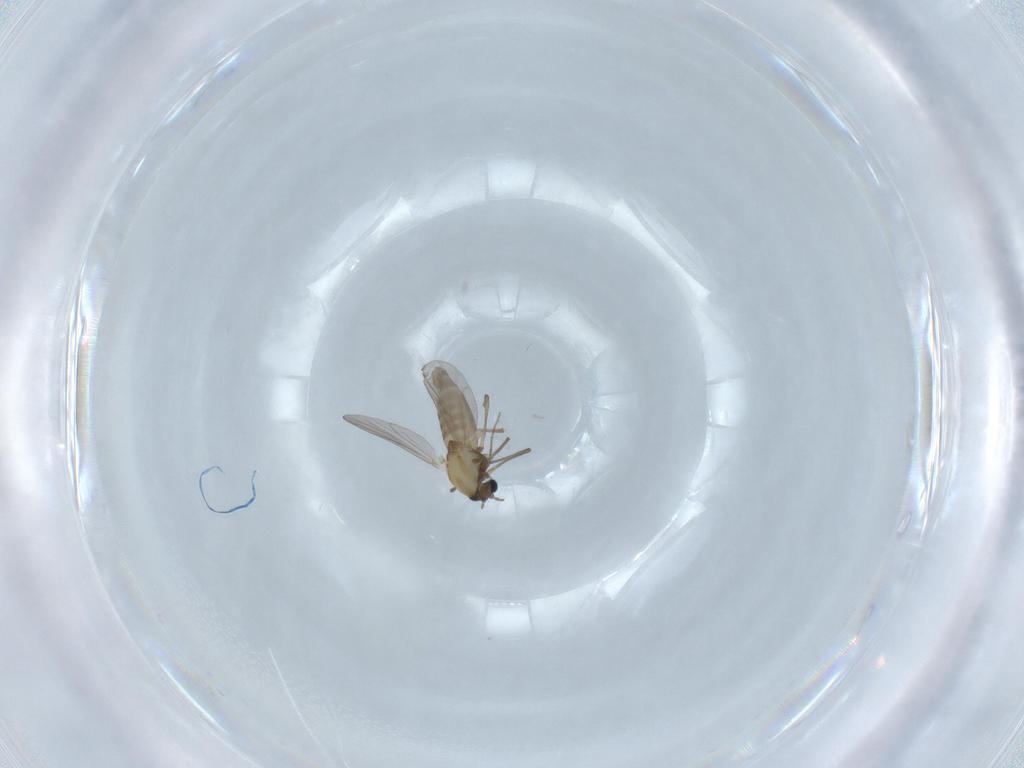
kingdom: Animalia
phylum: Arthropoda
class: Insecta
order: Diptera
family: Chironomidae
